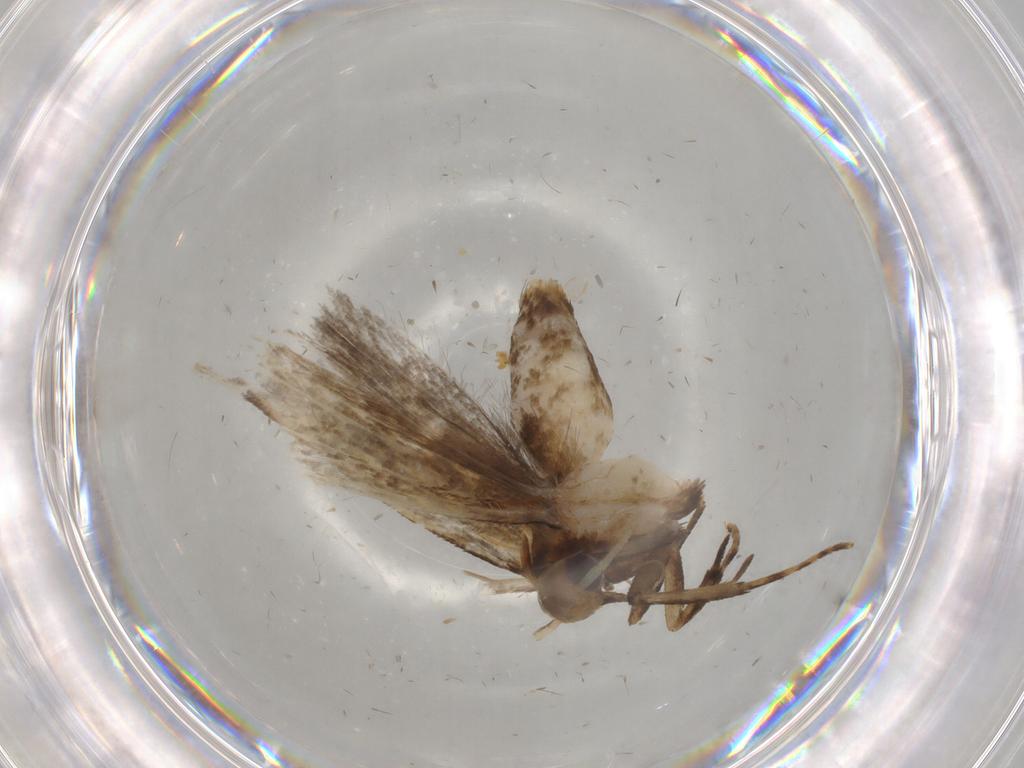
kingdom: Animalia
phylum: Arthropoda
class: Insecta
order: Lepidoptera
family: Gelechiidae
